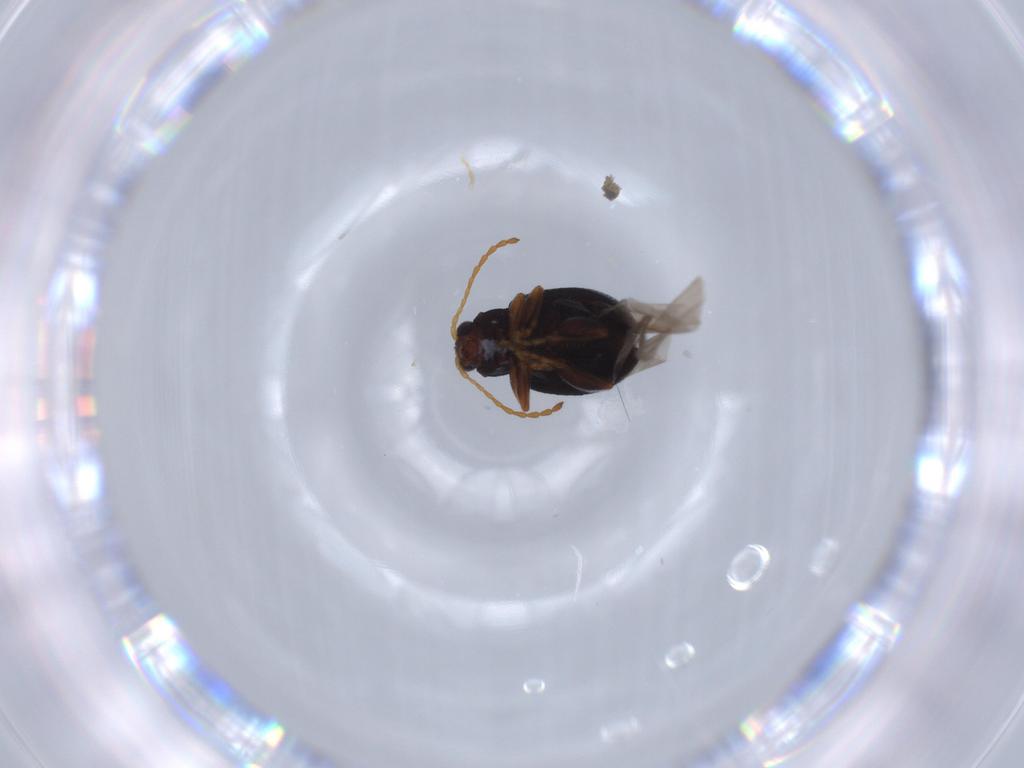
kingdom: Animalia
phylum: Arthropoda
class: Insecta
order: Coleoptera
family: Chrysomelidae
